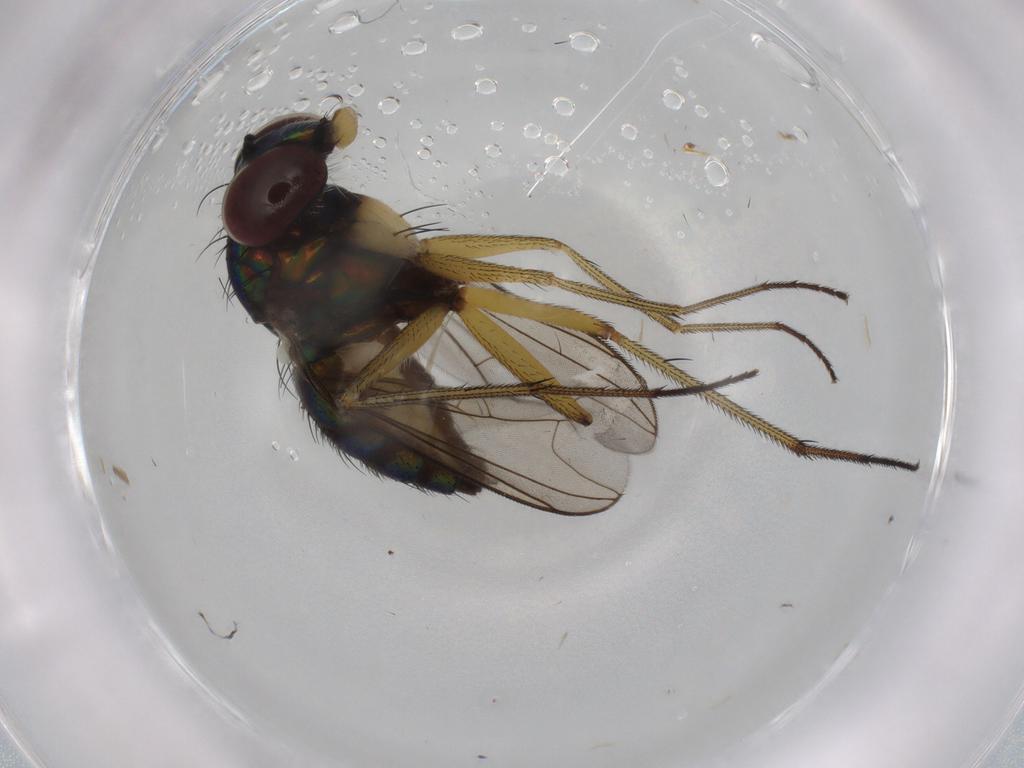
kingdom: Animalia
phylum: Arthropoda
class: Insecta
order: Diptera
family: Dolichopodidae
